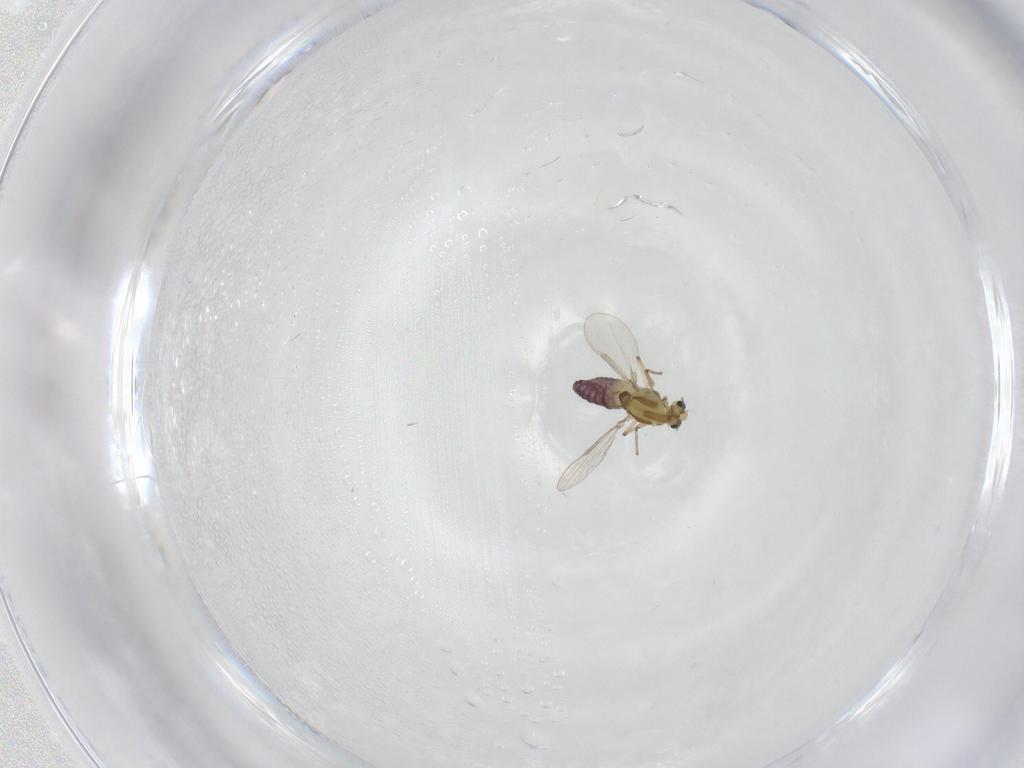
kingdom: Animalia
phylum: Arthropoda
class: Insecta
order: Diptera
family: Chironomidae
